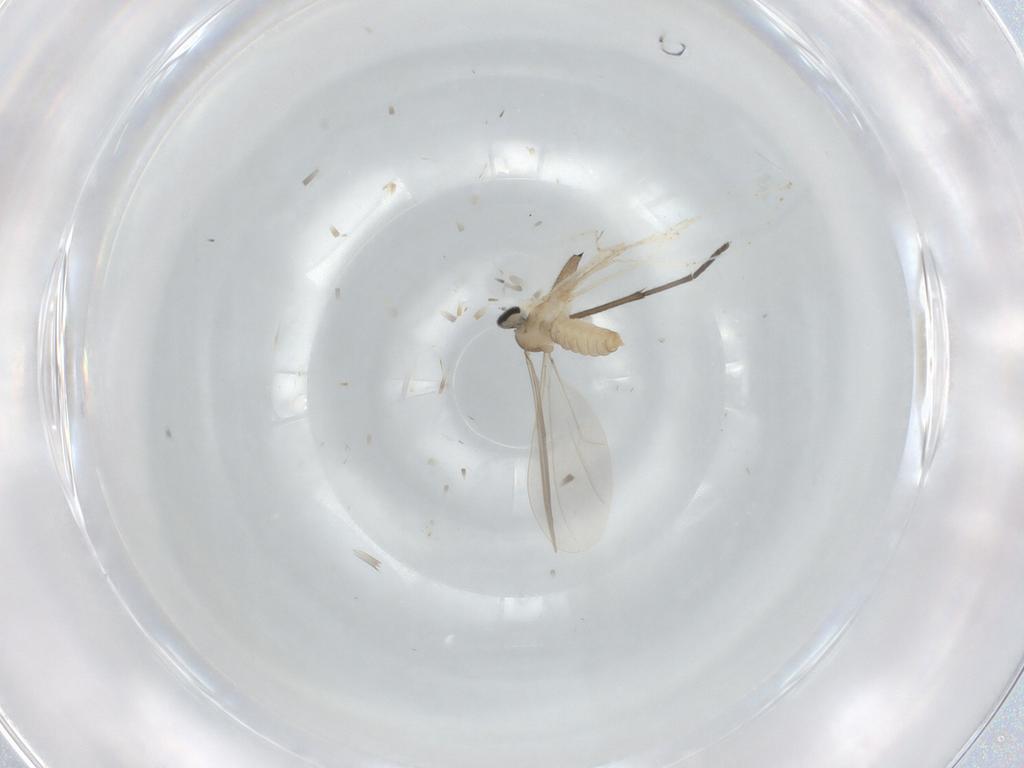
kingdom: Animalia
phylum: Arthropoda
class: Insecta
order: Diptera
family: Cecidomyiidae
